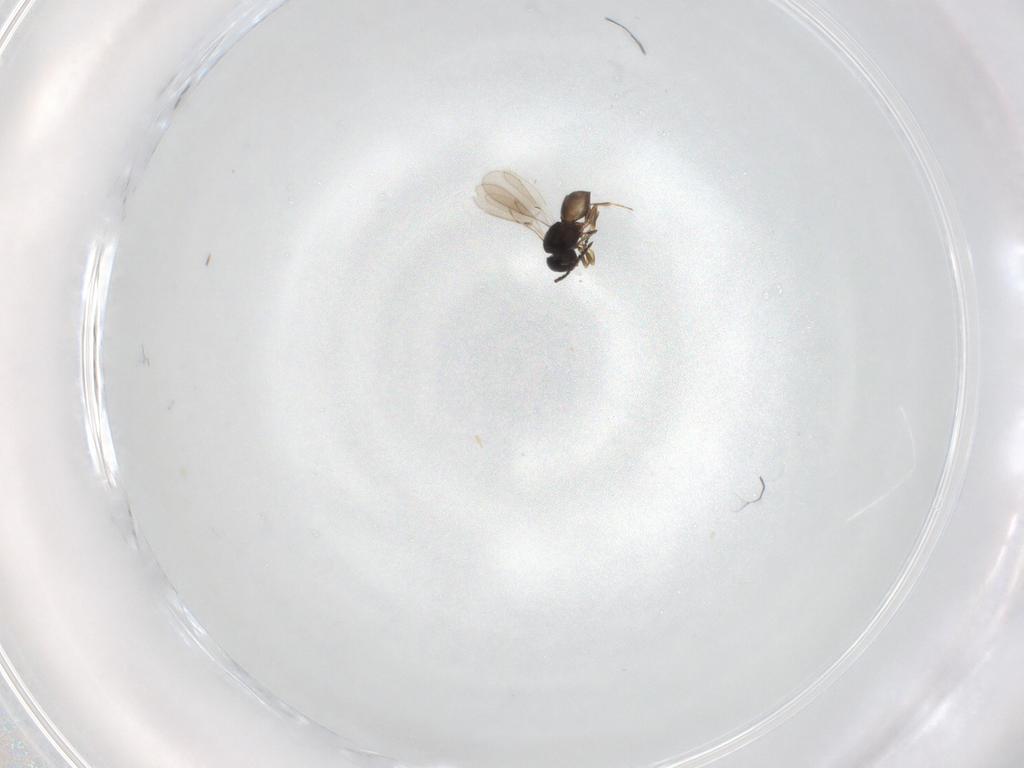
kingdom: Animalia
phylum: Arthropoda
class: Insecta
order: Hymenoptera
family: Scelionidae
